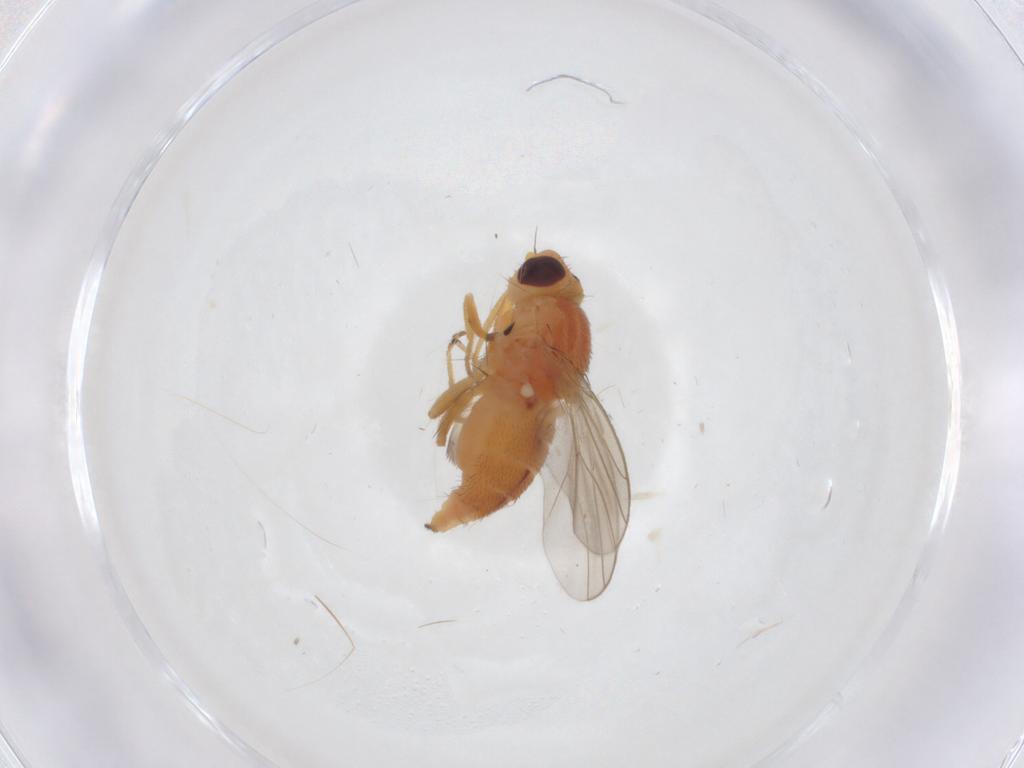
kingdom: Animalia
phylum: Arthropoda
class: Insecta
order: Diptera
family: Chloropidae
